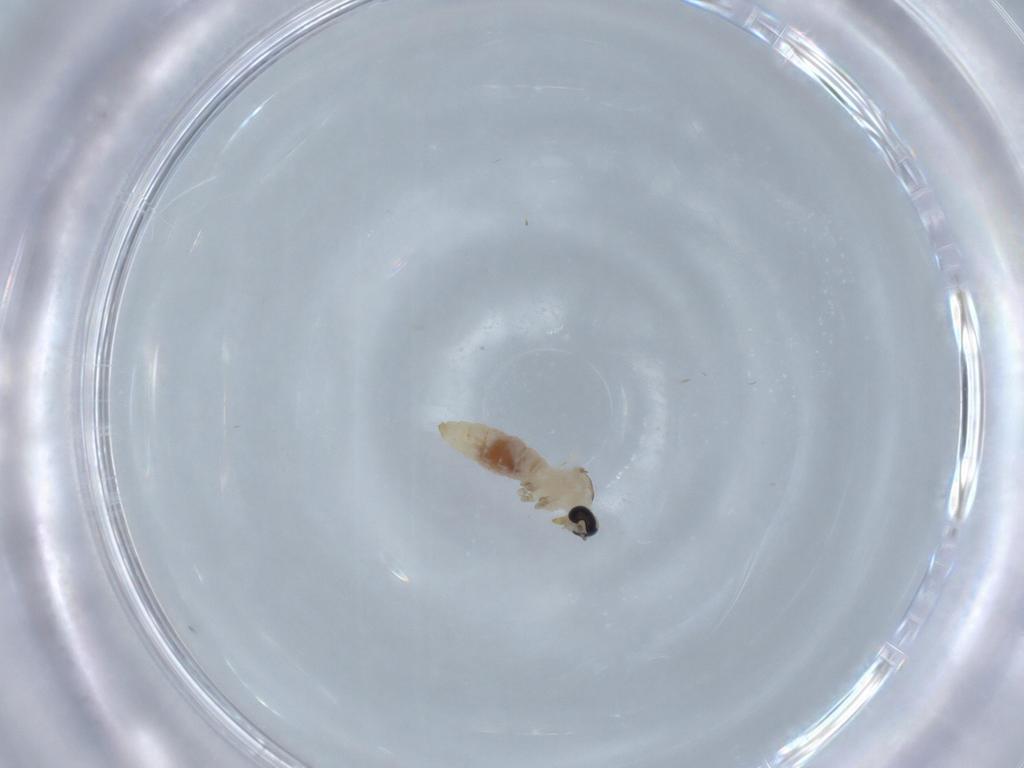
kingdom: Animalia
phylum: Arthropoda
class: Insecta
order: Diptera
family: Cecidomyiidae
